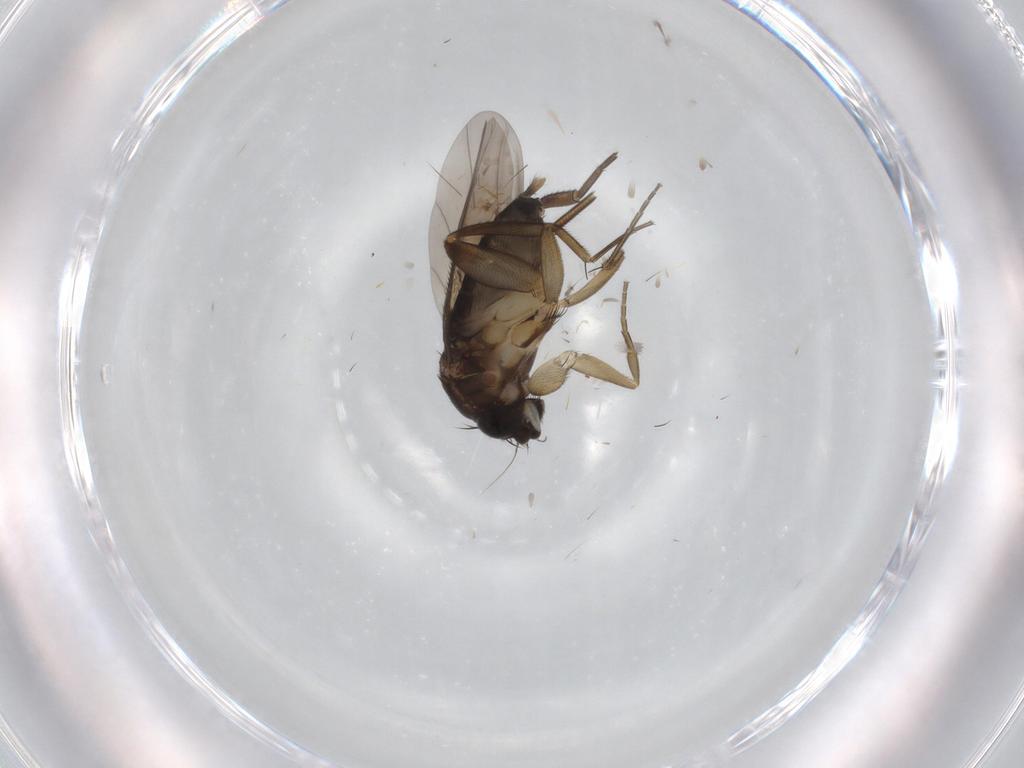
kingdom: Animalia
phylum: Arthropoda
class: Insecta
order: Diptera
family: Phoridae
